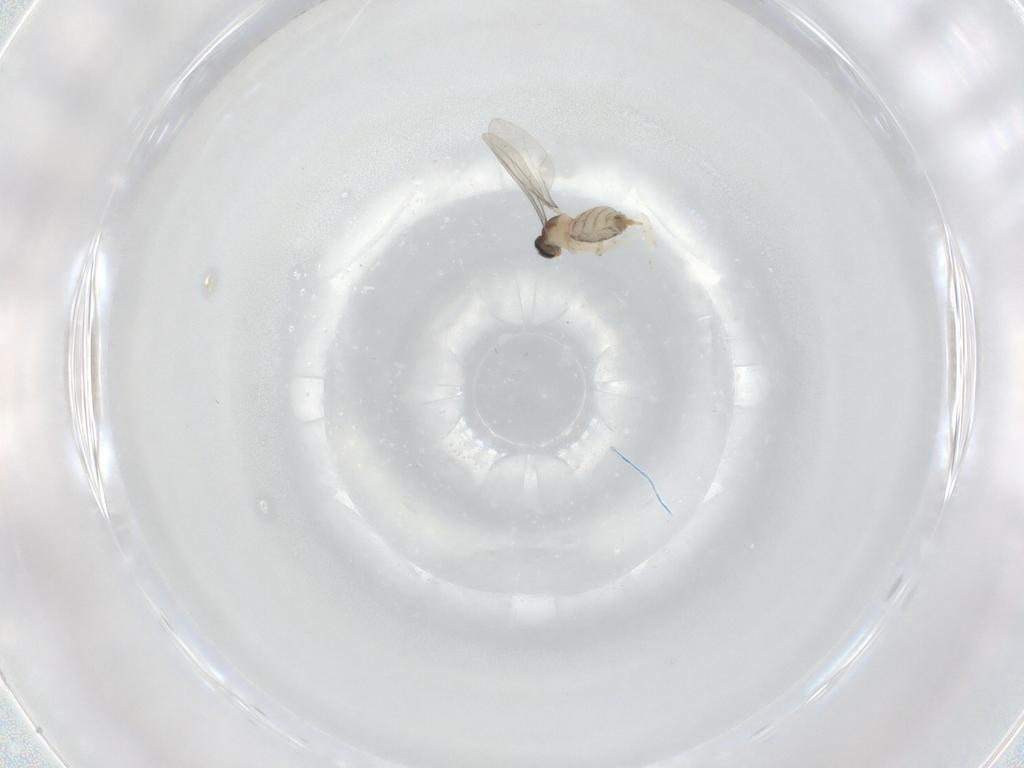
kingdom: Animalia
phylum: Arthropoda
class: Insecta
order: Diptera
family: Cecidomyiidae
